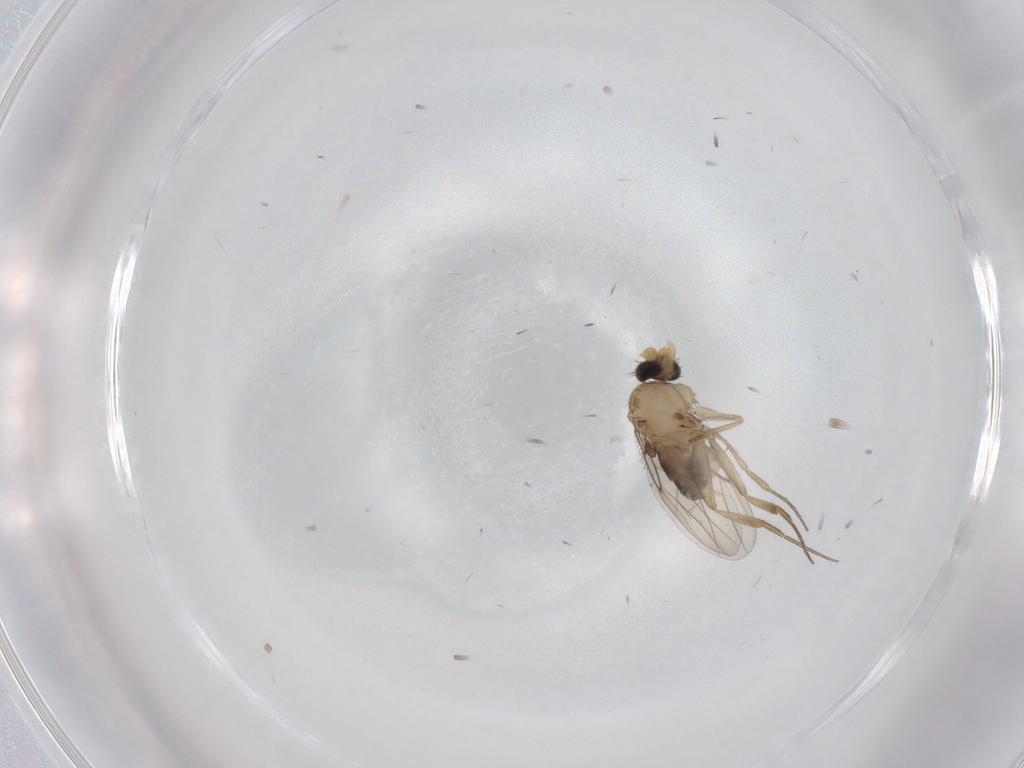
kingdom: Animalia
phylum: Arthropoda
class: Insecta
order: Diptera
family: Phoridae
